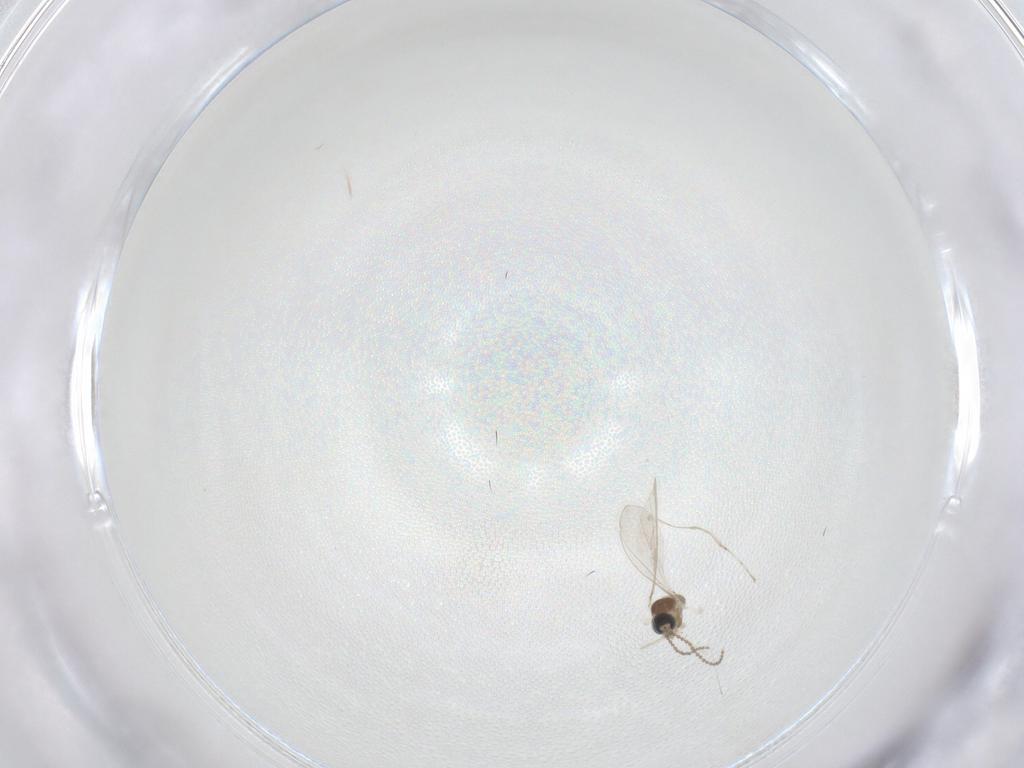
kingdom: Animalia
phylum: Arthropoda
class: Insecta
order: Diptera
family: Cecidomyiidae
